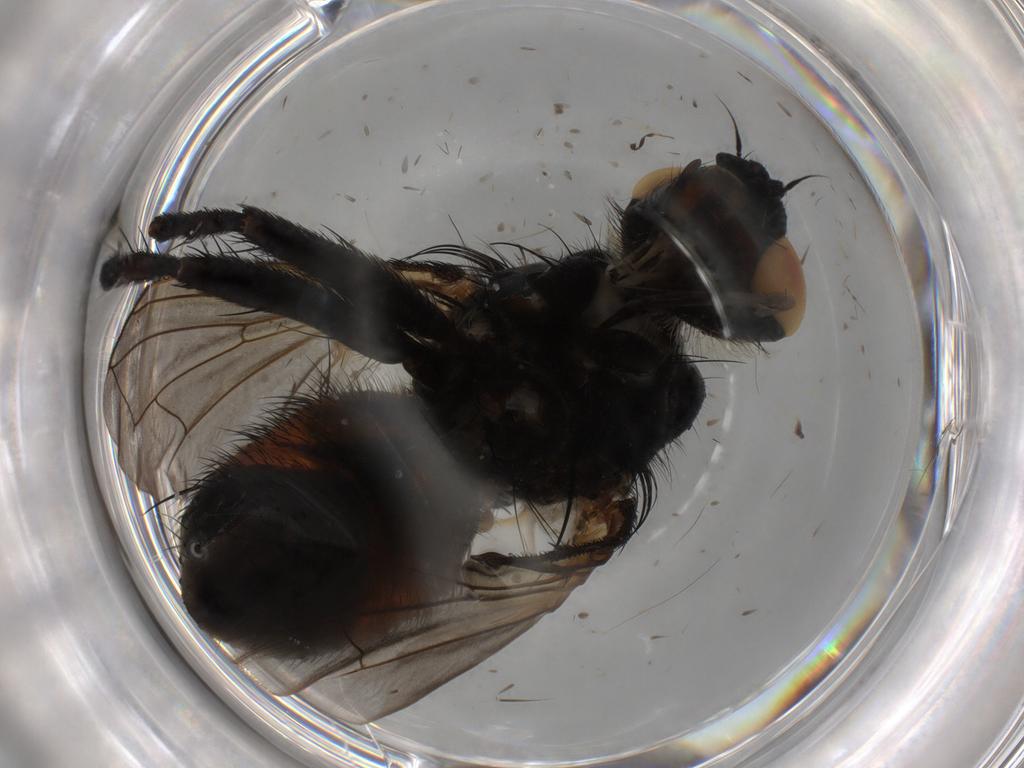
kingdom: Animalia
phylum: Arthropoda
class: Insecta
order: Diptera
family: Tachinidae
